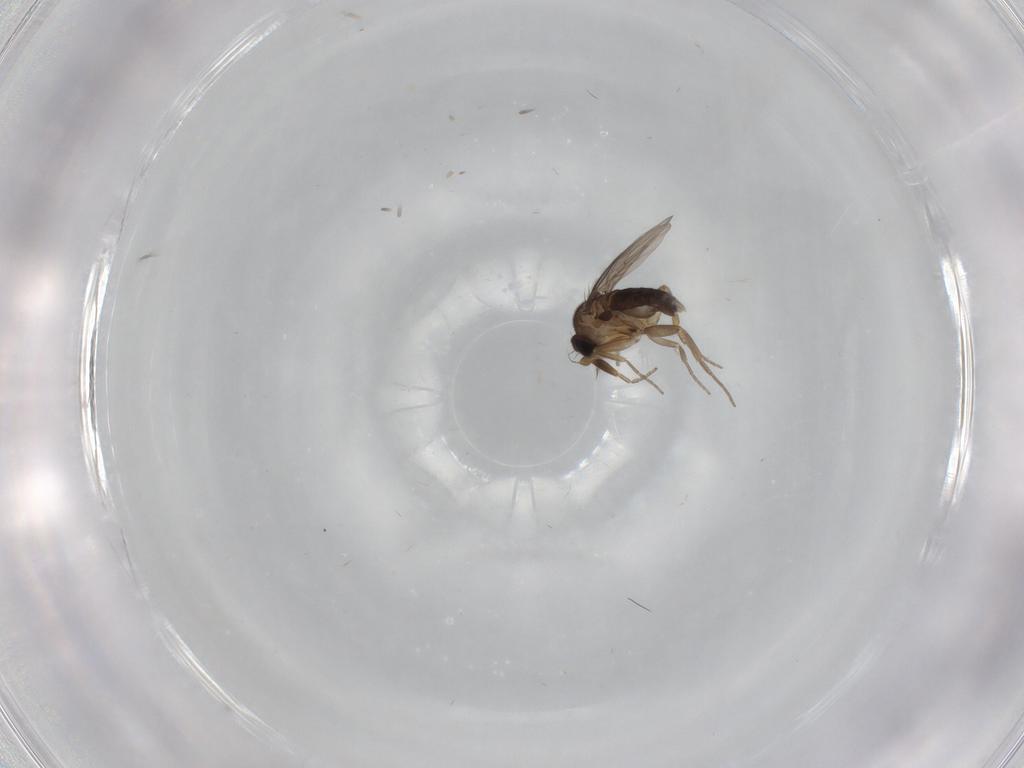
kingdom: Animalia
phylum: Arthropoda
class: Insecta
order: Diptera
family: Phoridae
